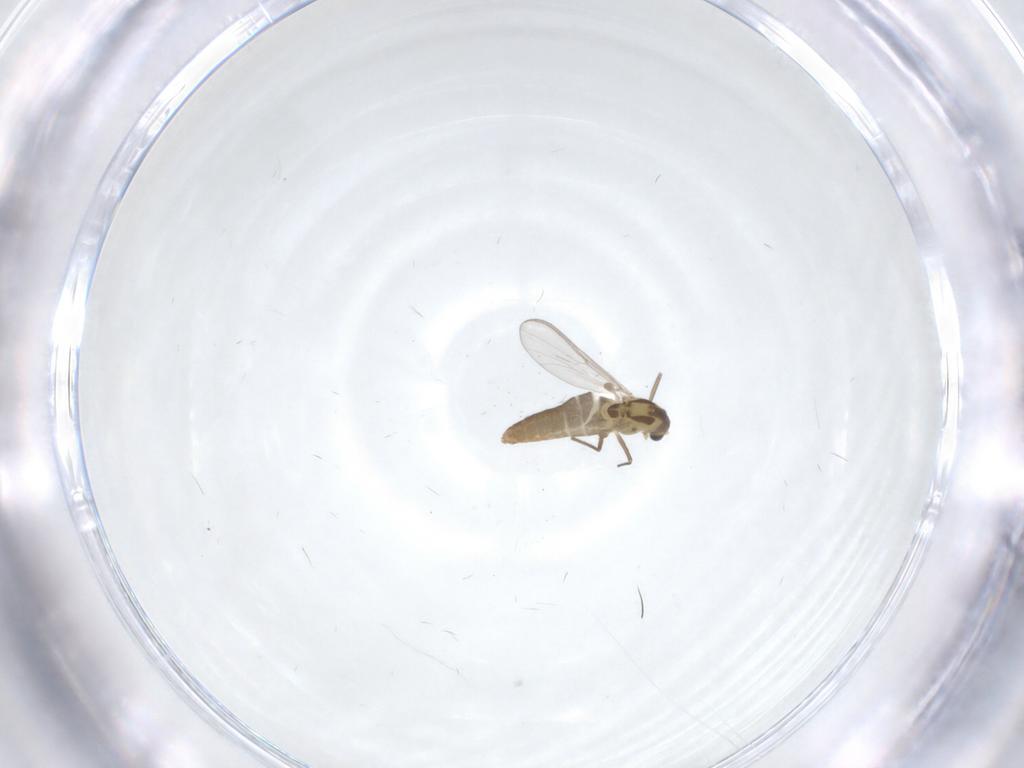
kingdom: Animalia
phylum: Arthropoda
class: Insecta
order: Diptera
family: Chironomidae
